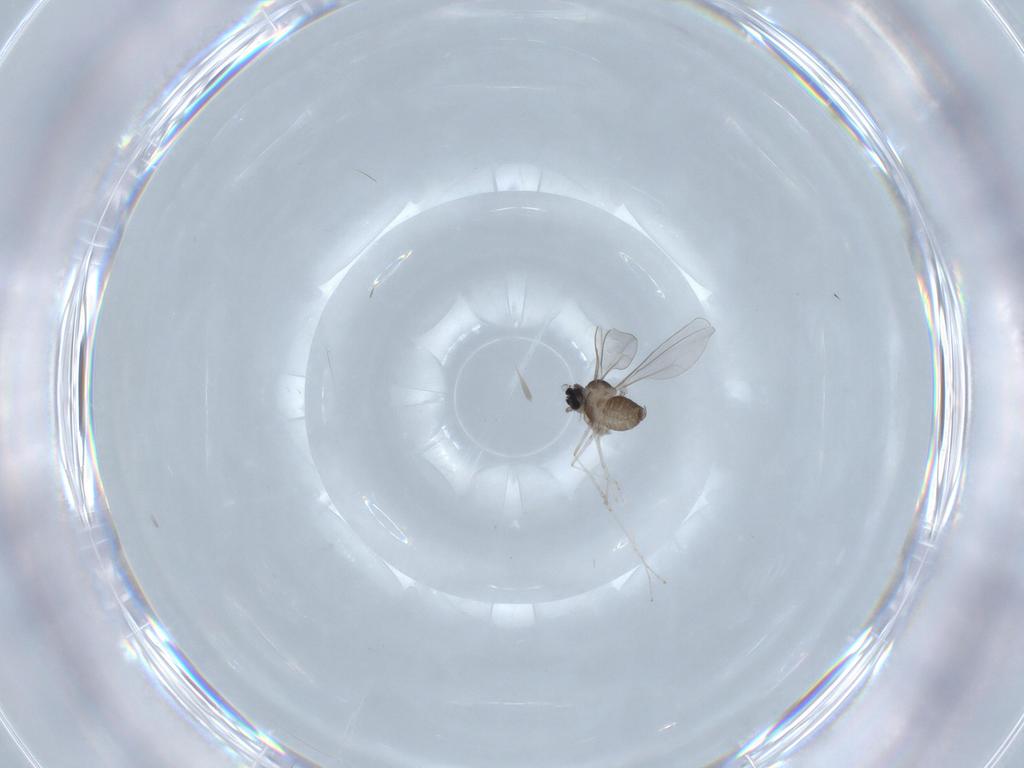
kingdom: Animalia
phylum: Arthropoda
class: Insecta
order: Diptera
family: Cecidomyiidae
